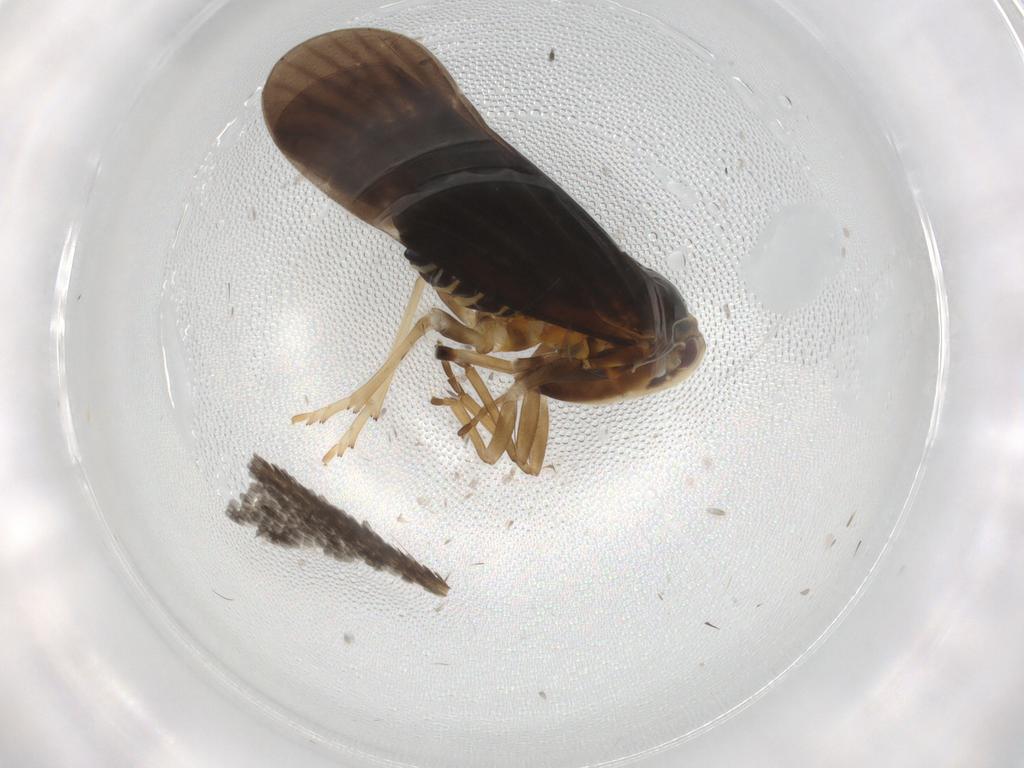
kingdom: Animalia
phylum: Arthropoda
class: Insecta
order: Hemiptera
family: Derbidae
